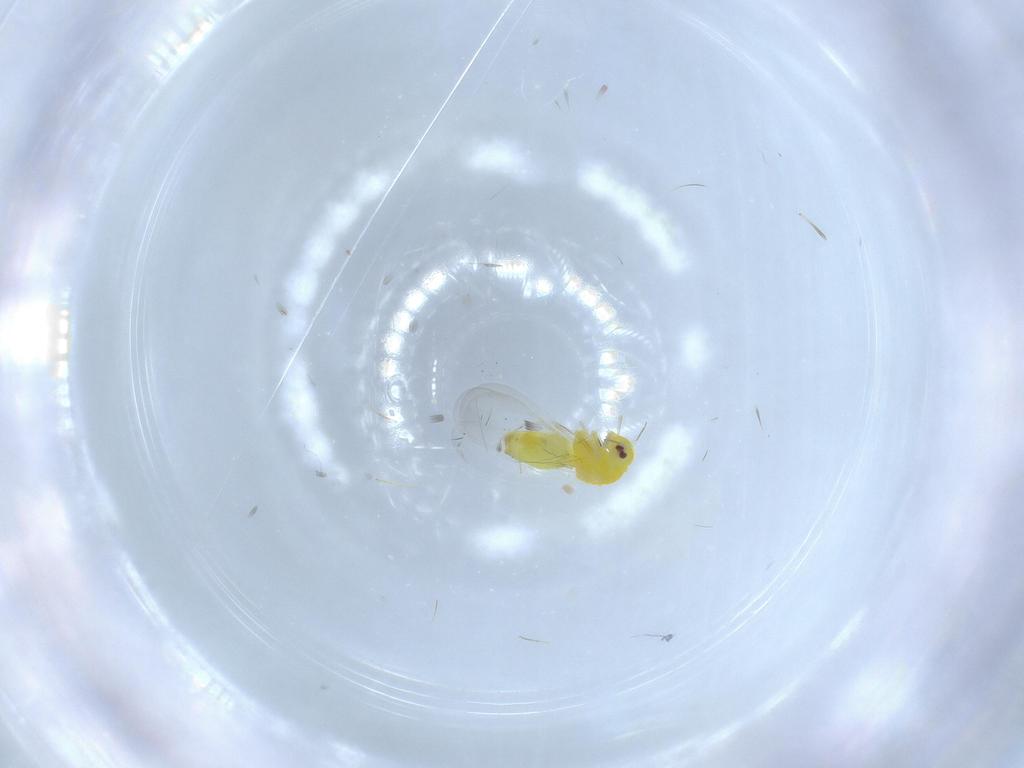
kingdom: Animalia
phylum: Arthropoda
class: Insecta
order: Hemiptera
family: Aleyrodidae
